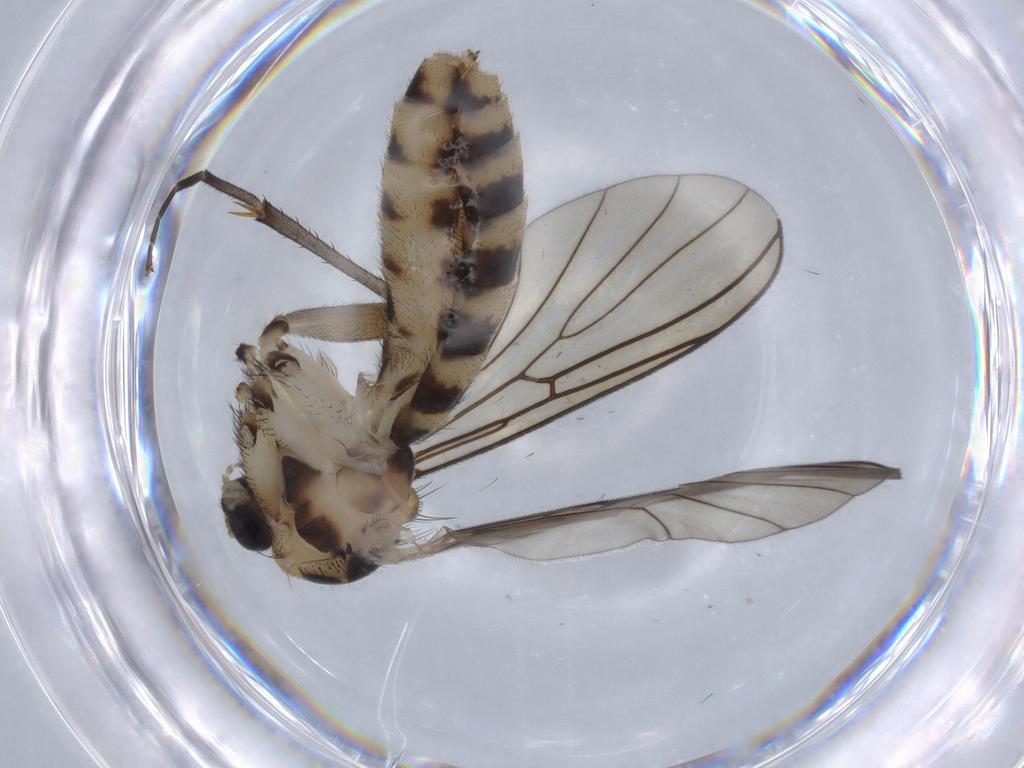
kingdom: Animalia
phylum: Arthropoda
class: Insecta
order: Diptera
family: Mycetophilidae
